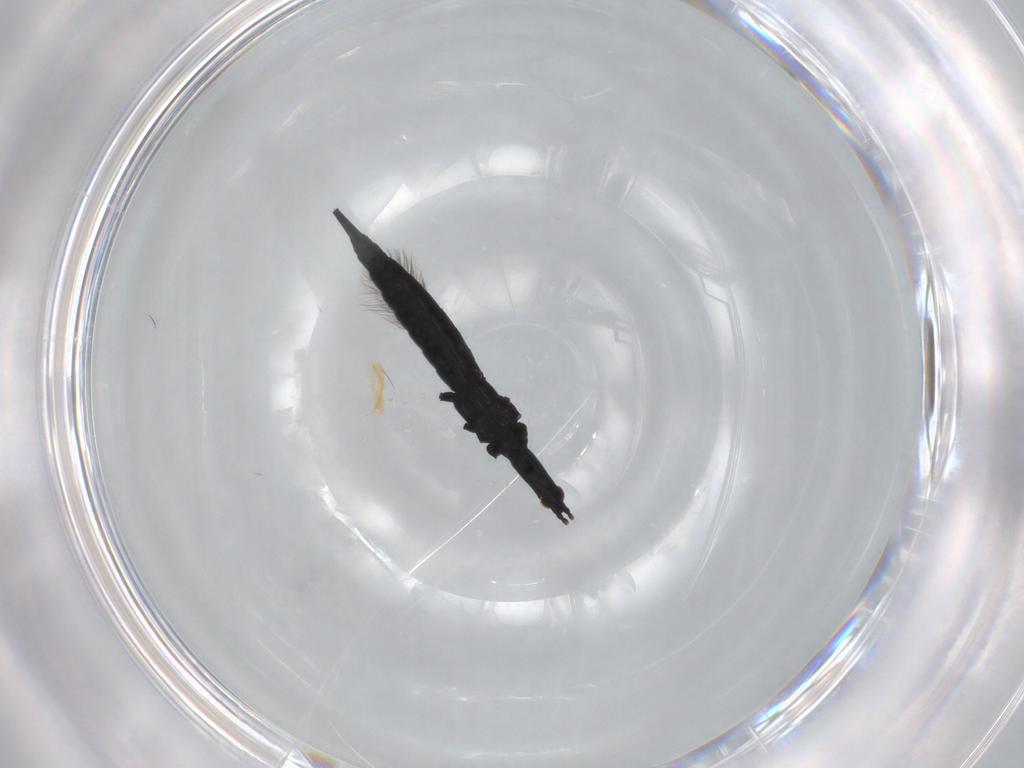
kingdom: Animalia
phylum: Arthropoda
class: Insecta
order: Thysanoptera
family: Phlaeothripidae
